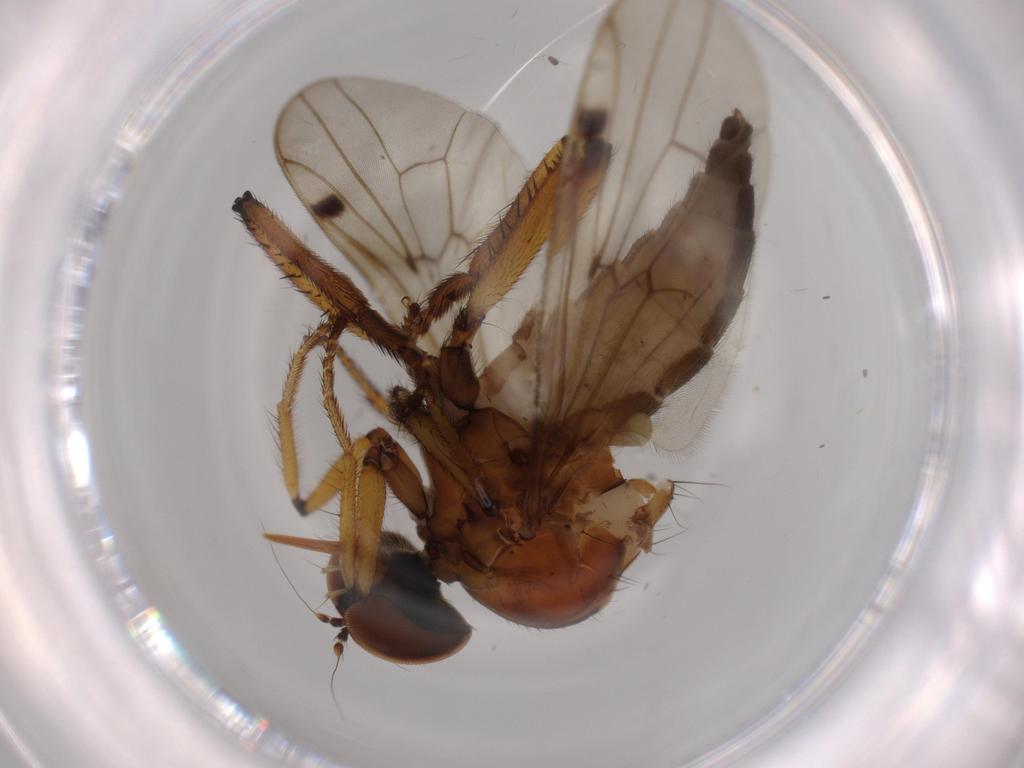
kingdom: Animalia
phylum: Arthropoda
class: Insecta
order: Diptera
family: Hybotidae
